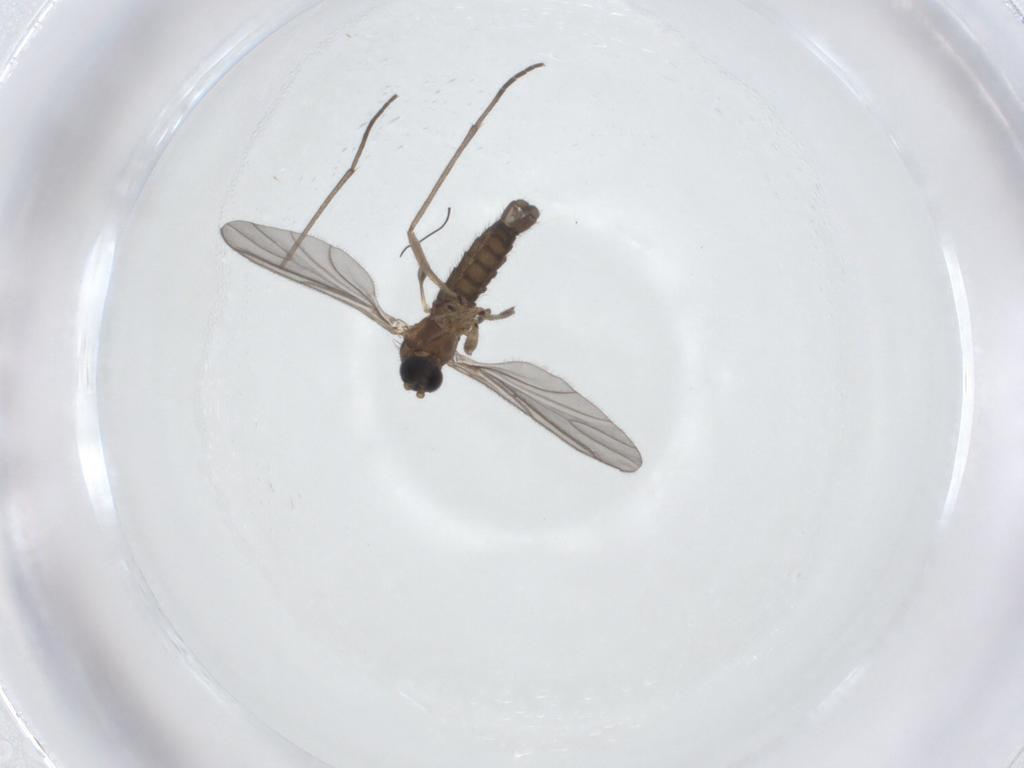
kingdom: Animalia
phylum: Arthropoda
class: Insecta
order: Diptera
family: Sciaridae
